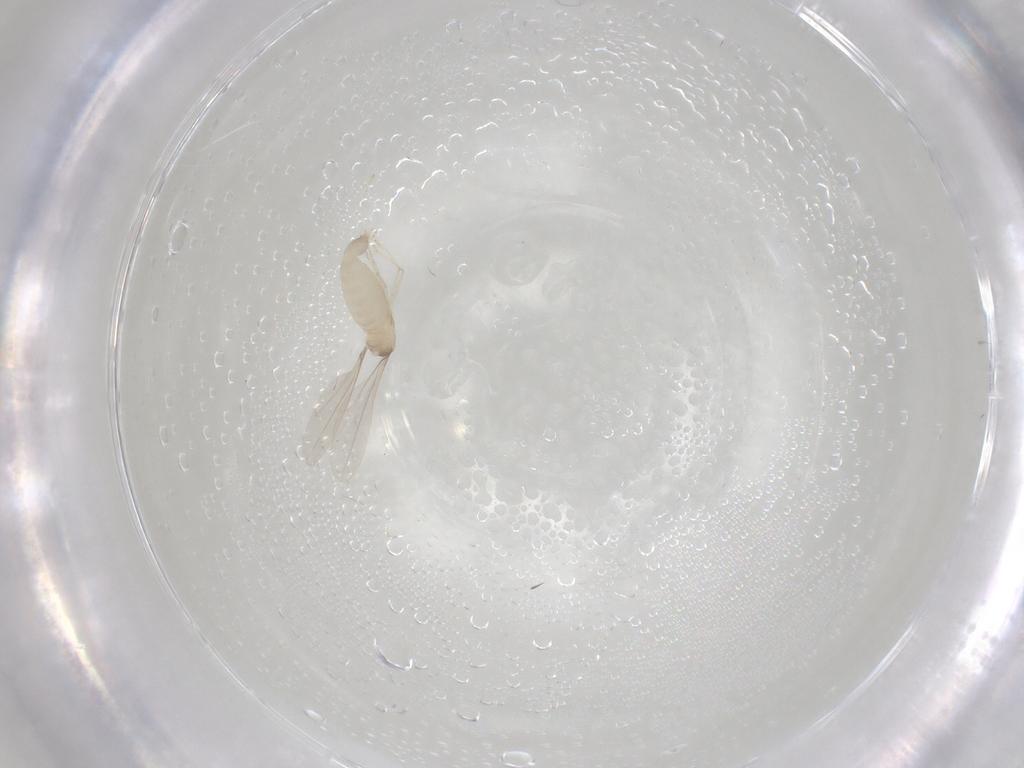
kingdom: Animalia
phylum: Arthropoda
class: Insecta
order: Diptera
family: Cecidomyiidae
